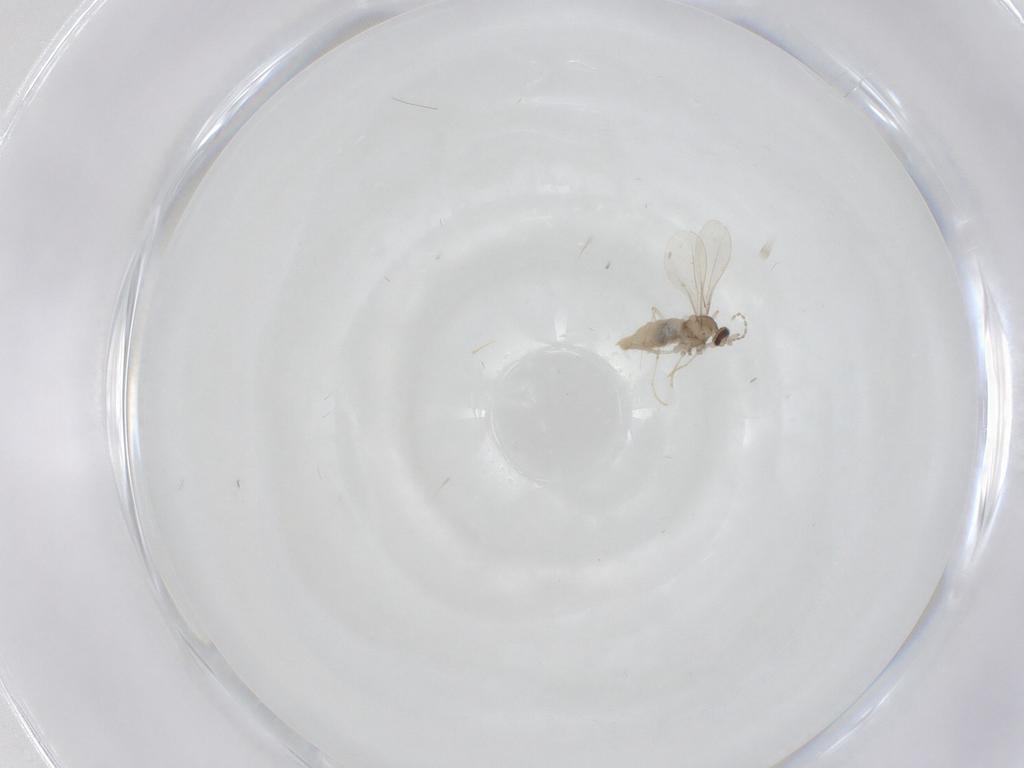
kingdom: Animalia
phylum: Arthropoda
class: Insecta
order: Diptera
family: Cecidomyiidae
